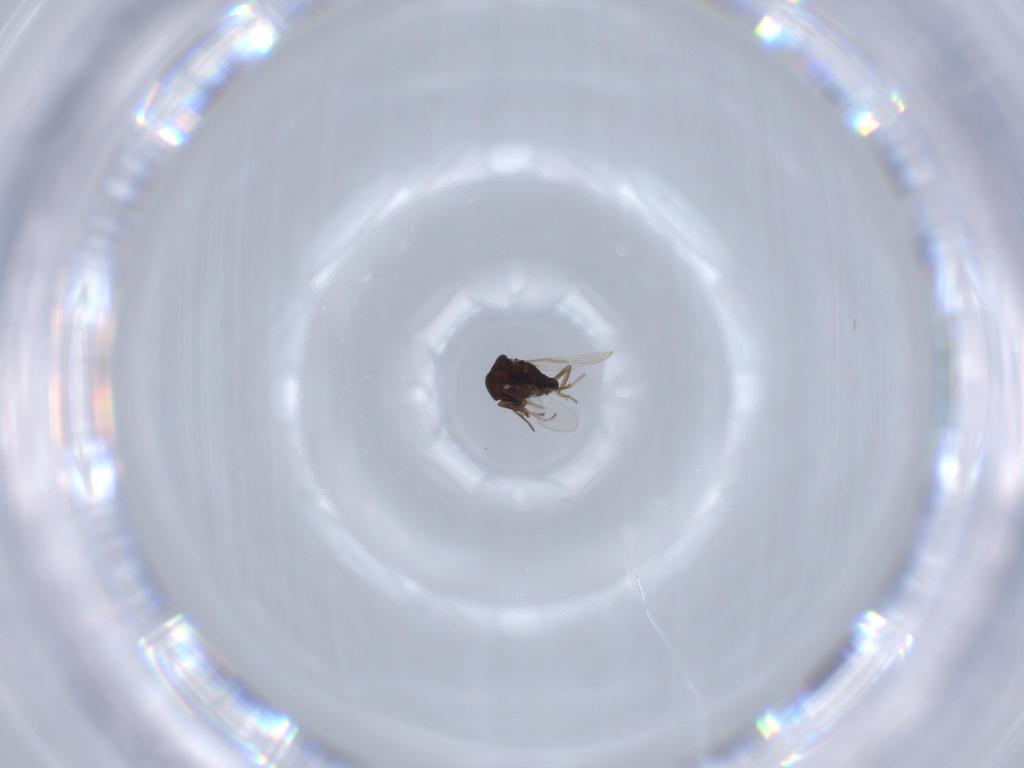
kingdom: Animalia
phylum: Arthropoda
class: Insecta
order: Diptera
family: Ceratopogonidae
